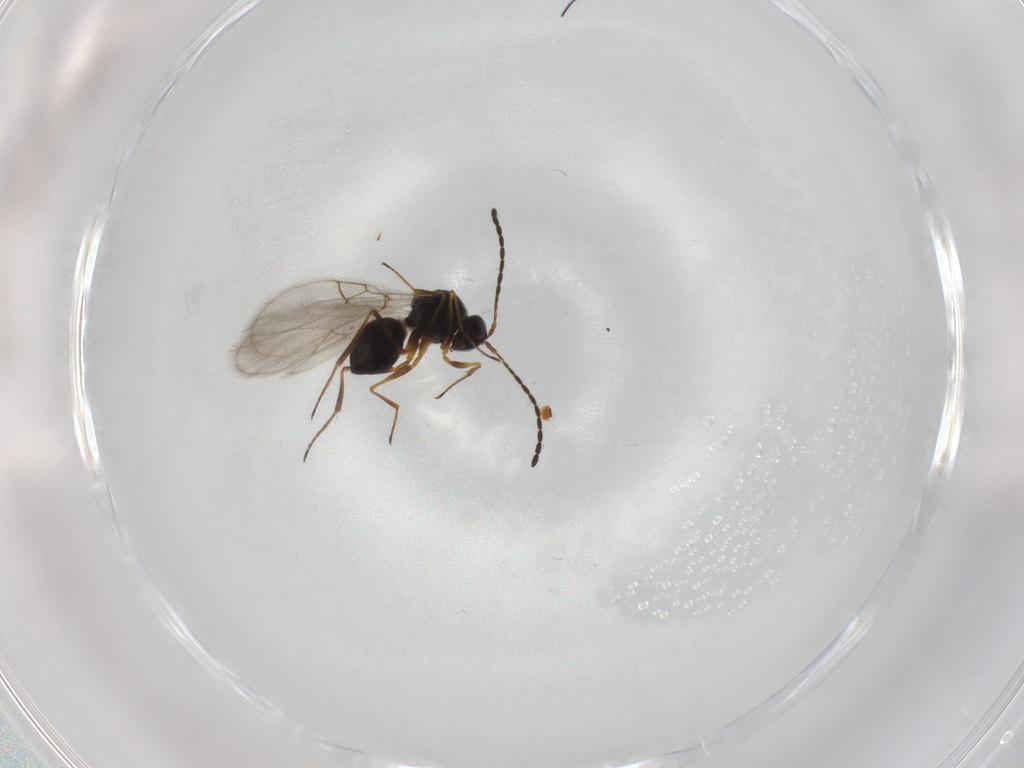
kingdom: Animalia
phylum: Arthropoda
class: Insecta
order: Hymenoptera
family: Figitidae
